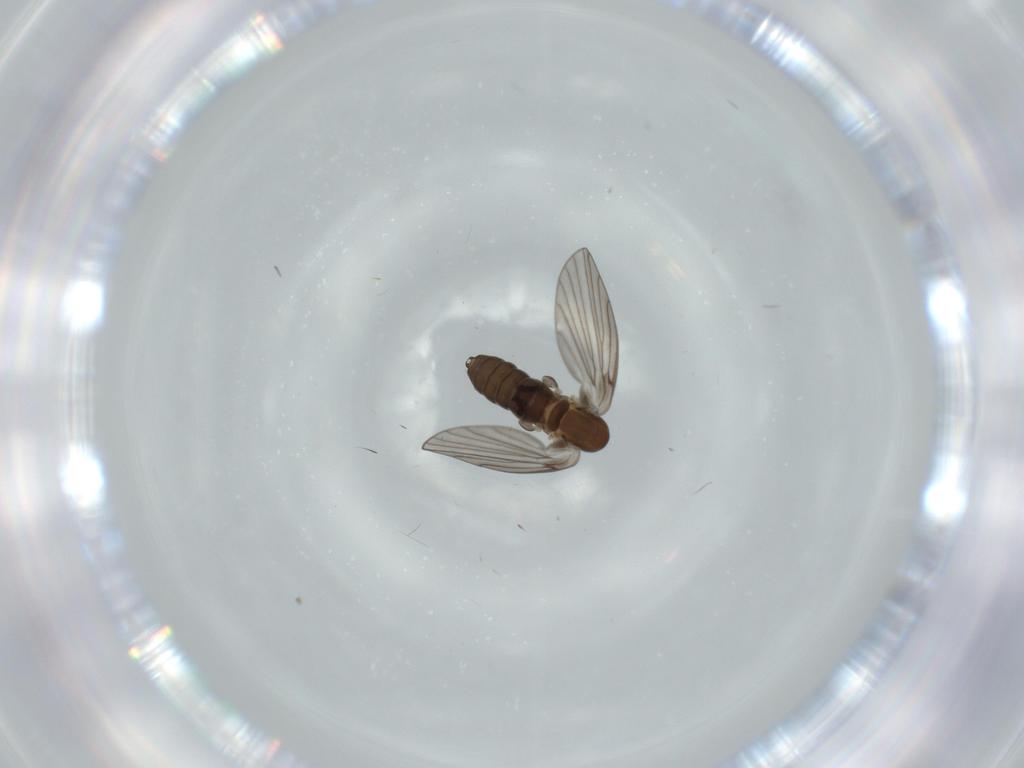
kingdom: Animalia
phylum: Arthropoda
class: Insecta
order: Diptera
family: Psychodidae
